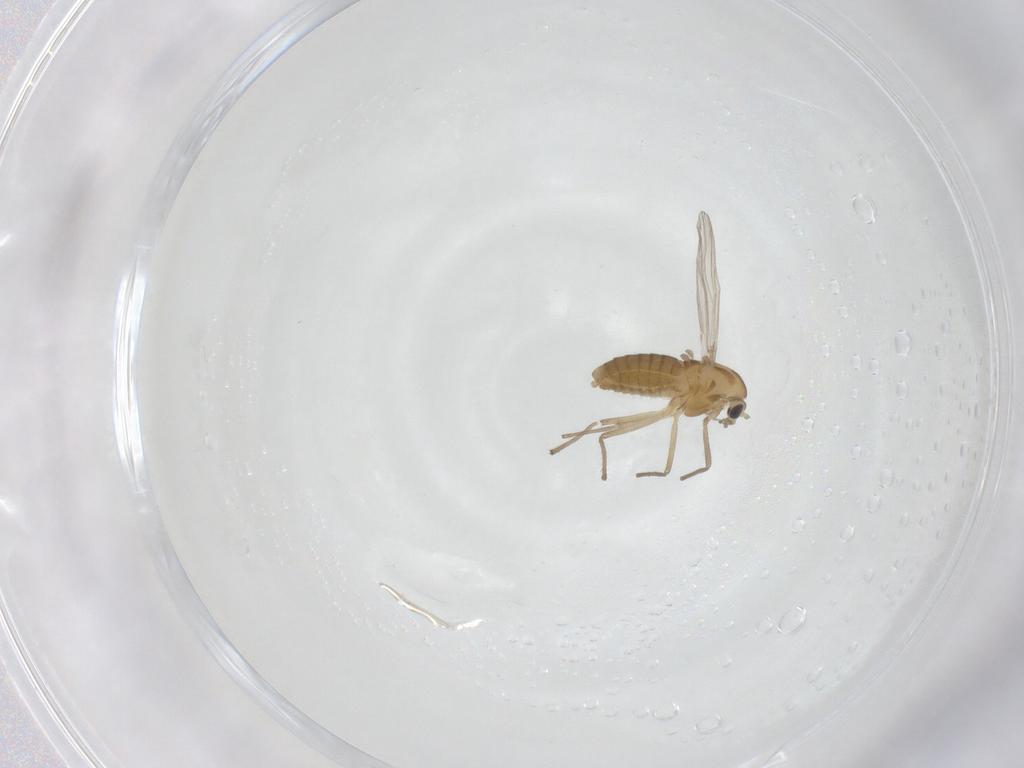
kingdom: Animalia
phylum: Arthropoda
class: Insecta
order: Diptera
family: Chironomidae
